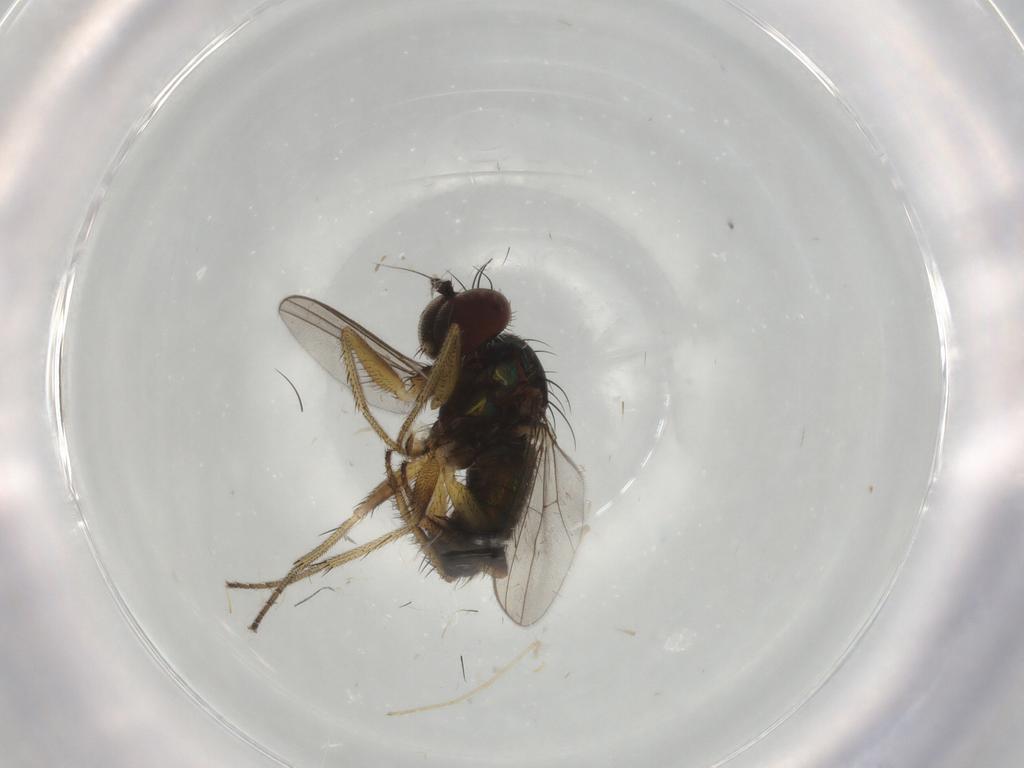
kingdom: Animalia
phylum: Arthropoda
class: Insecta
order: Diptera
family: Dolichopodidae
